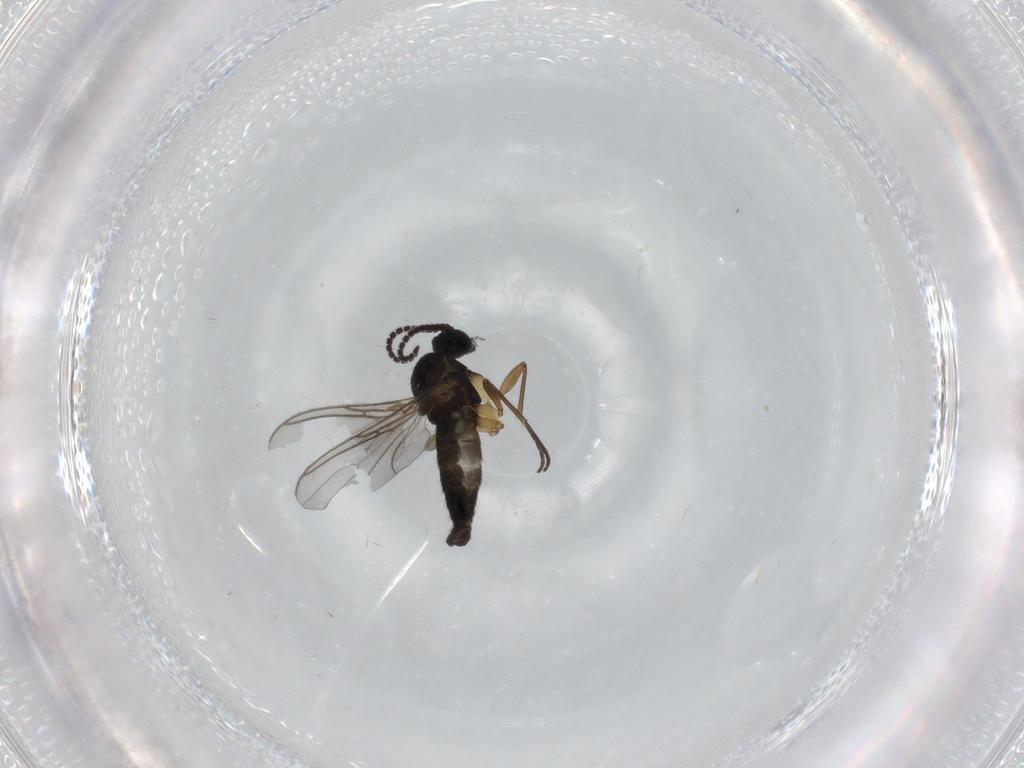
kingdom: Animalia
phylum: Arthropoda
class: Insecta
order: Diptera
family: Sciaridae
